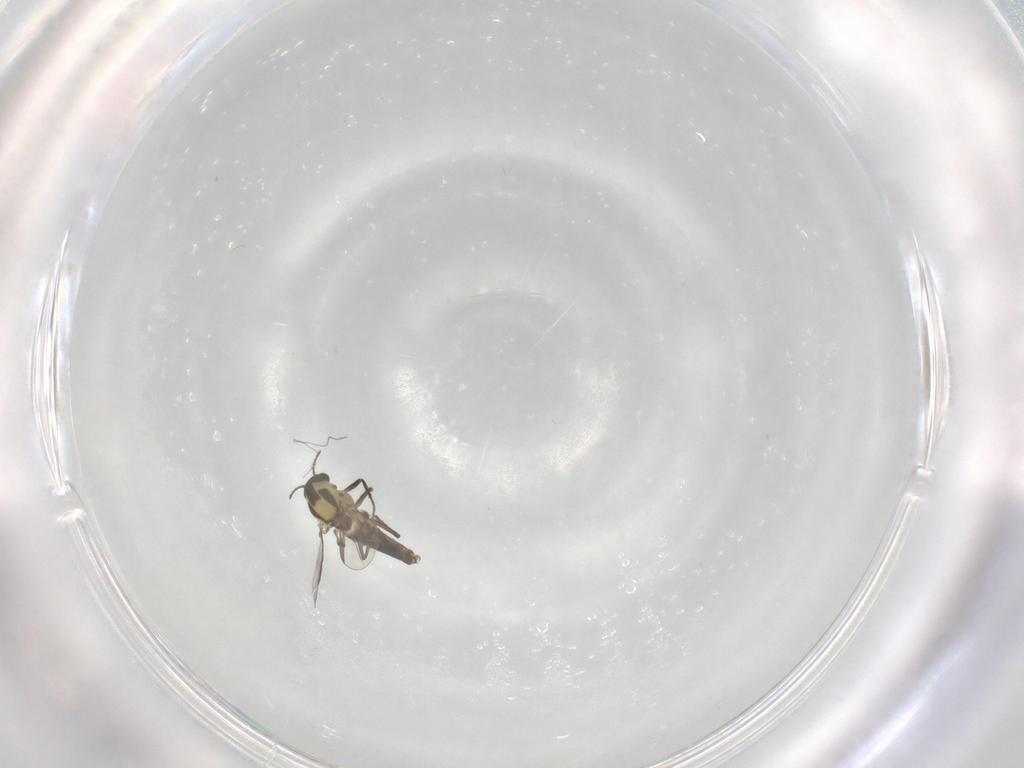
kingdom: Animalia
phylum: Arthropoda
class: Insecta
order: Diptera
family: Chironomidae
